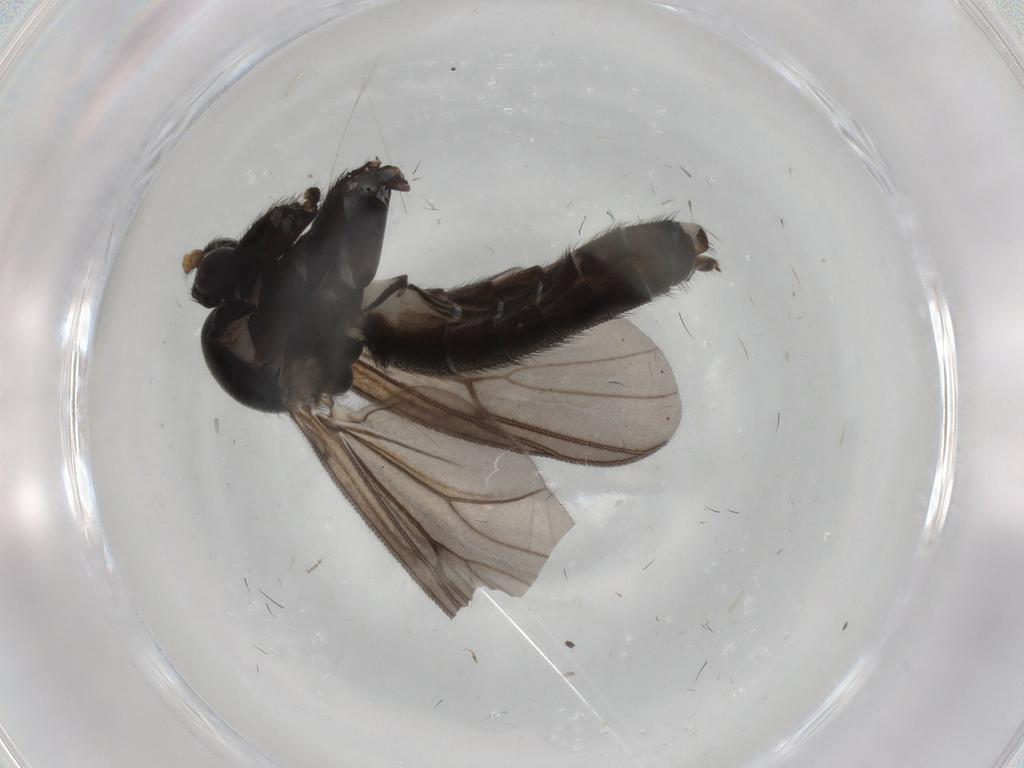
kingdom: Animalia
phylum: Arthropoda
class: Insecta
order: Diptera
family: Mycetophilidae
